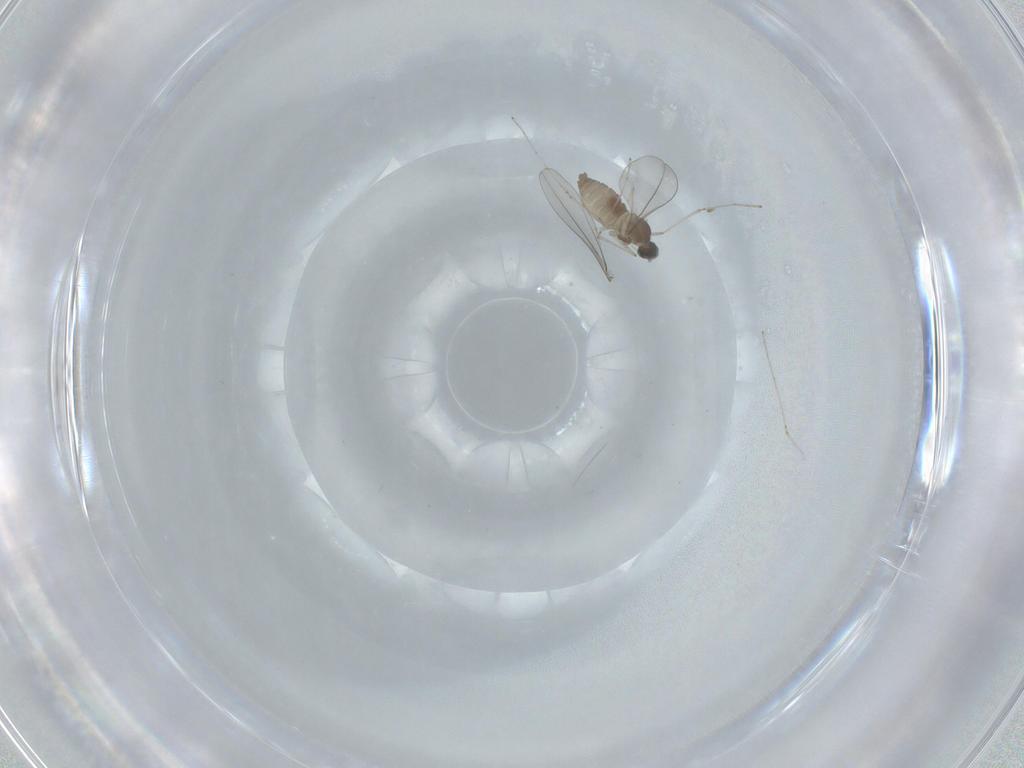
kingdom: Animalia
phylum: Arthropoda
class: Insecta
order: Diptera
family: Cecidomyiidae
